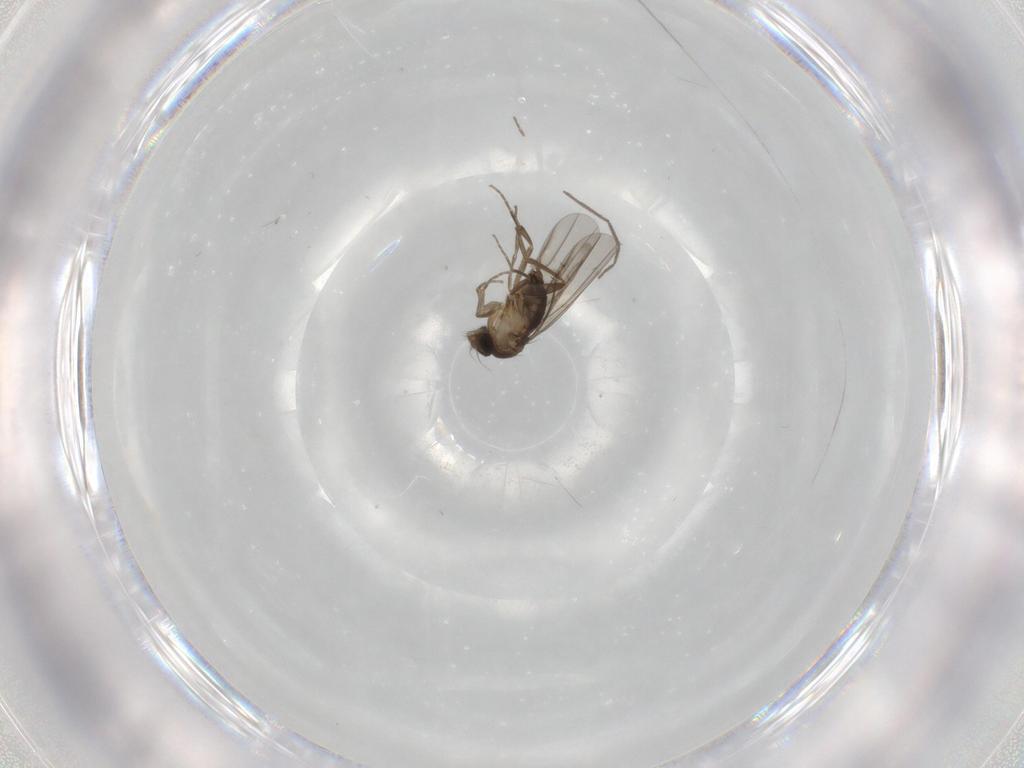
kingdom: Animalia
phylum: Arthropoda
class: Insecta
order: Diptera
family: Phoridae
